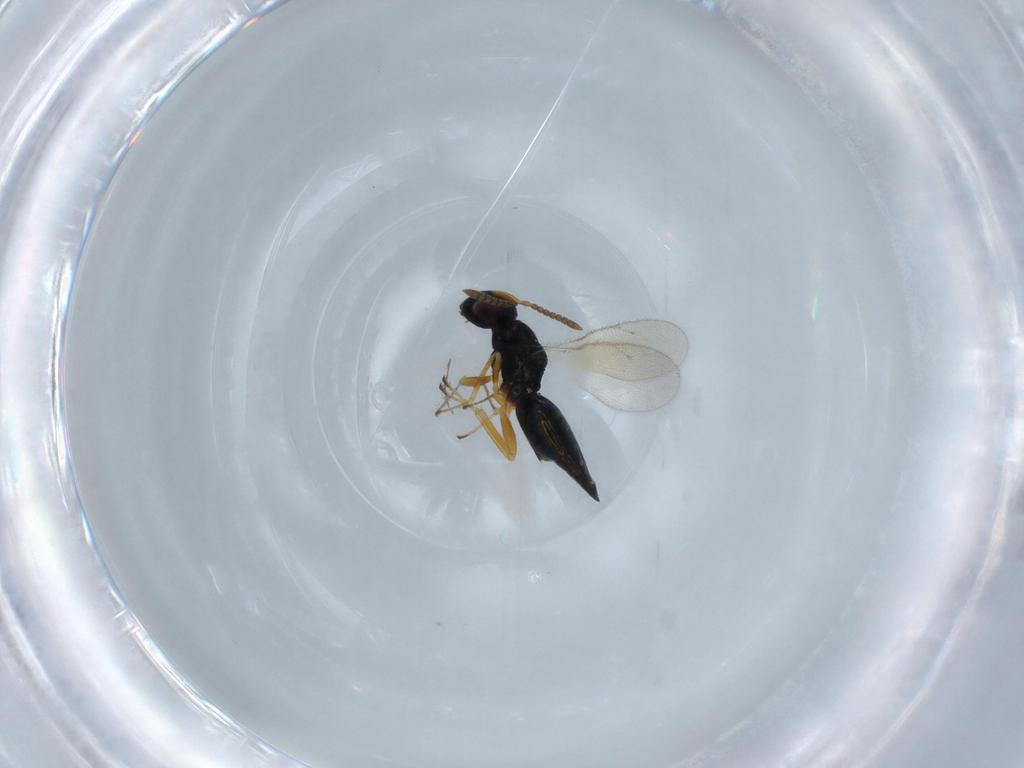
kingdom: Animalia
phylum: Arthropoda
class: Insecta
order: Hymenoptera
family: Pteromalidae
